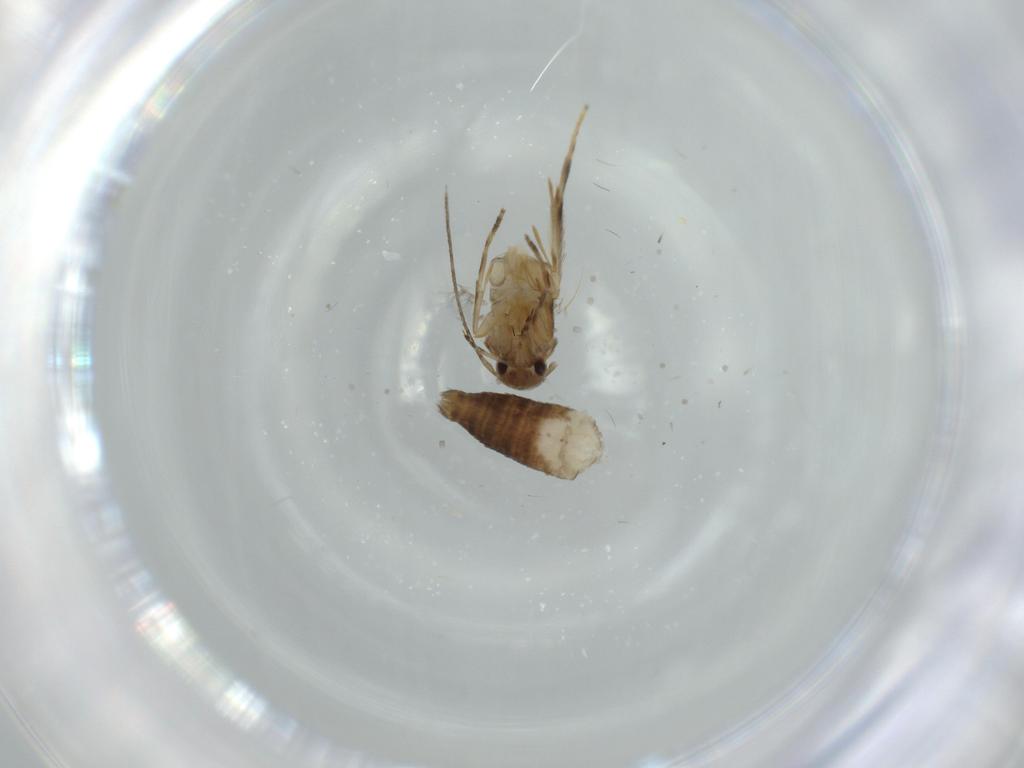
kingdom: Animalia
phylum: Arthropoda
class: Insecta
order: Lepidoptera
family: Coleophoridae
